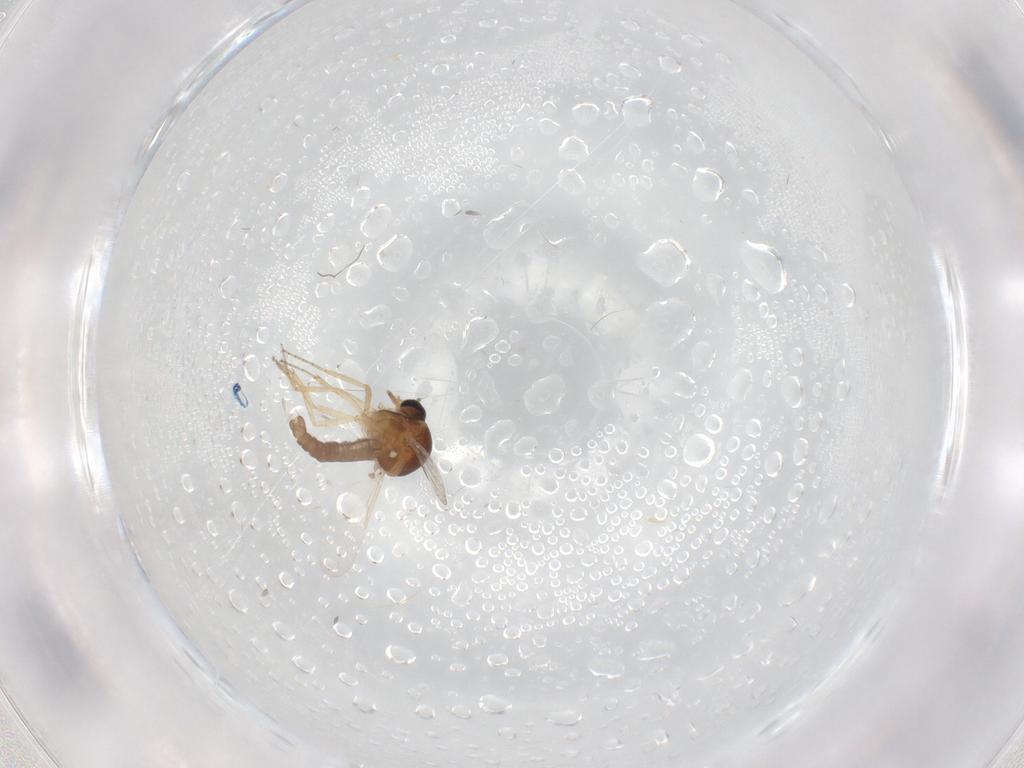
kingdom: Animalia
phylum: Arthropoda
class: Insecta
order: Diptera
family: Ceratopogonidae
